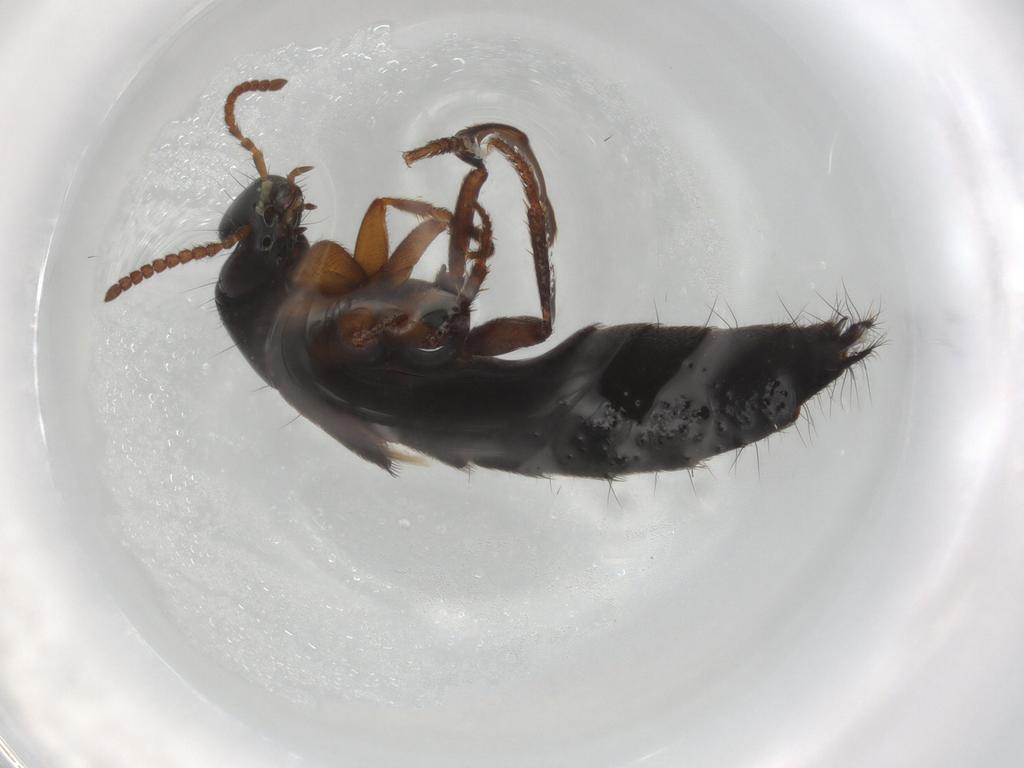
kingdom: Animalia
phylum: Arthropoda
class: Insecta
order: Coleoptera
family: Staphylinidae
